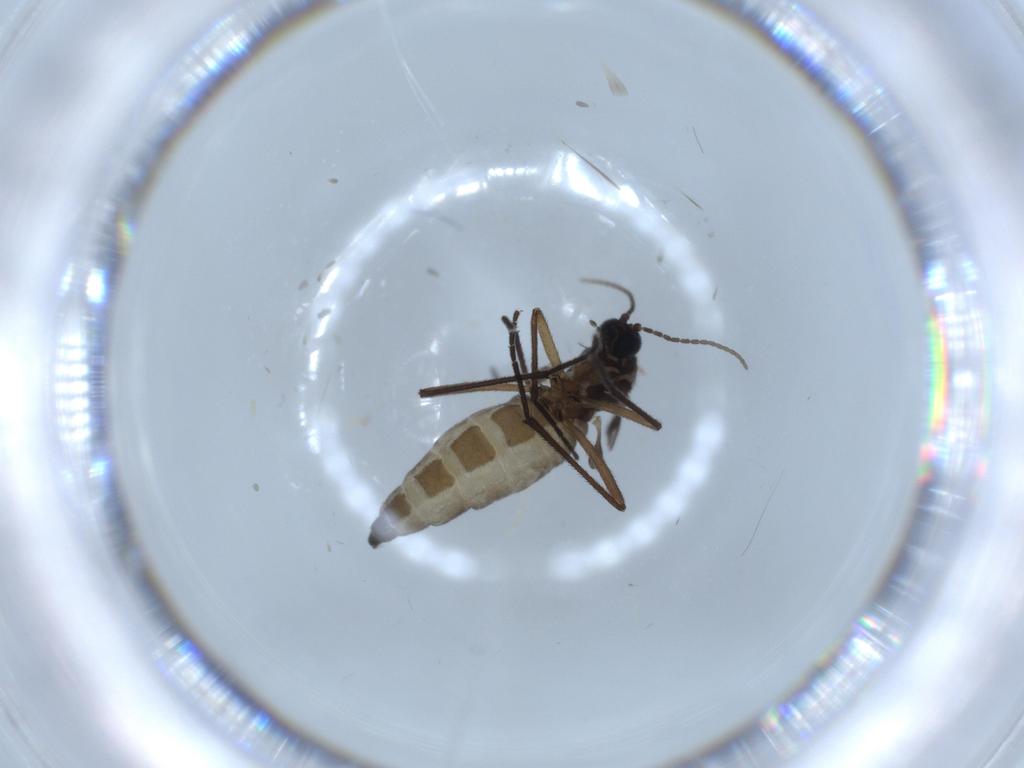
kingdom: Animalia
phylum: Arthropoda
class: Insecta
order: Diptera
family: Sciaridae
